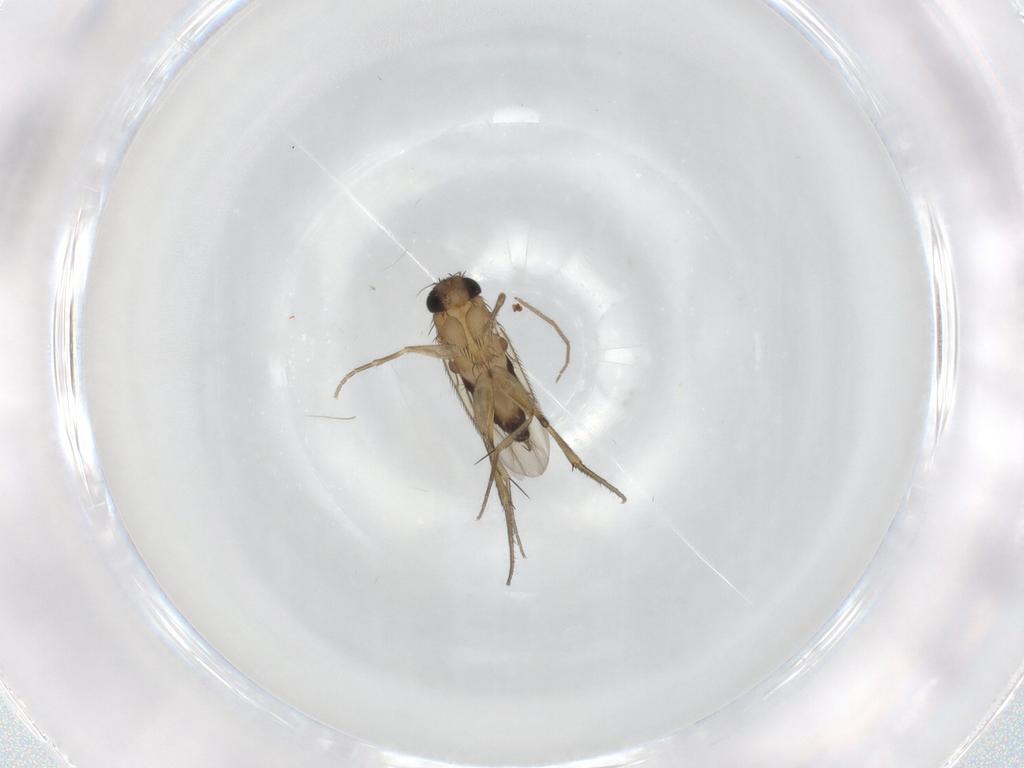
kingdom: Animalia
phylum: Arthropoda
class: Insecta
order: Diptera
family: Phoridae
